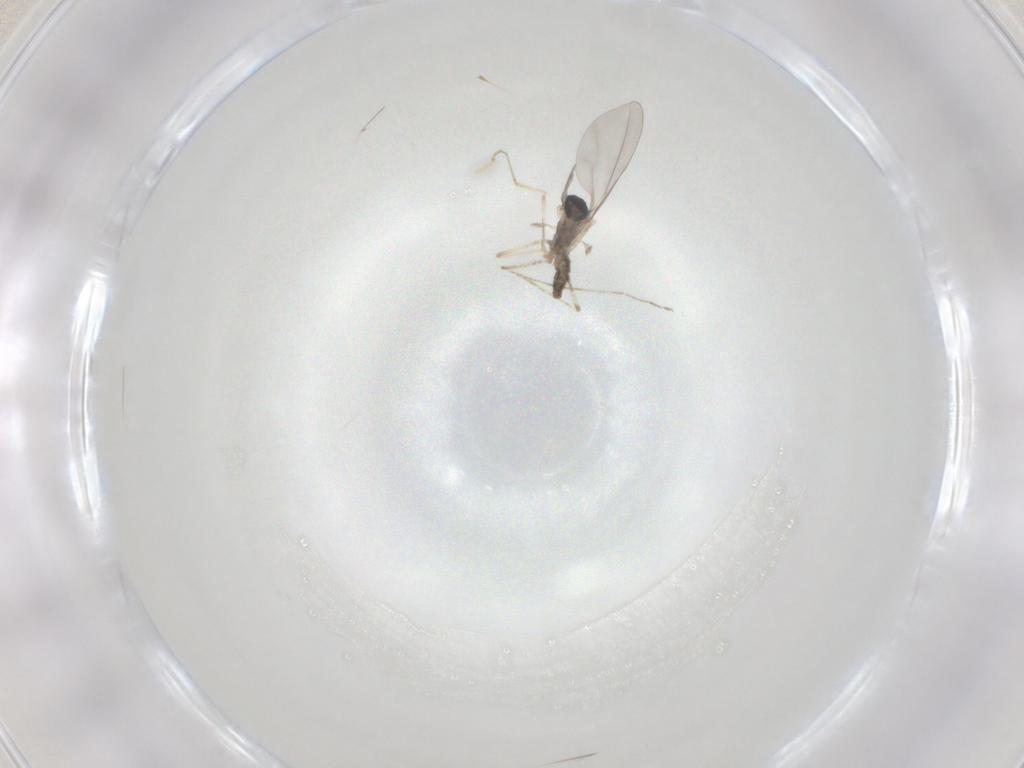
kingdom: Animalia
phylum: Arthropoda
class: Insecta
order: Diptera
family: Cecidomyiidae
